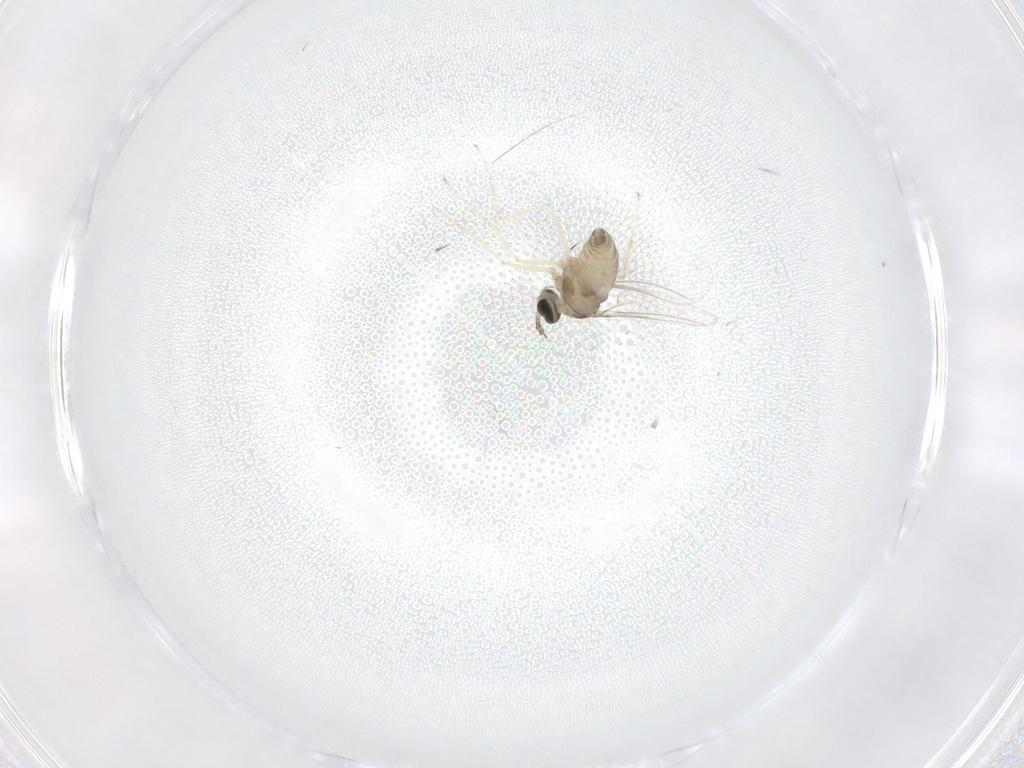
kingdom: Animalia
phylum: Arthropoda
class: Insecta
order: Diptera
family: Cecidomyiidae
